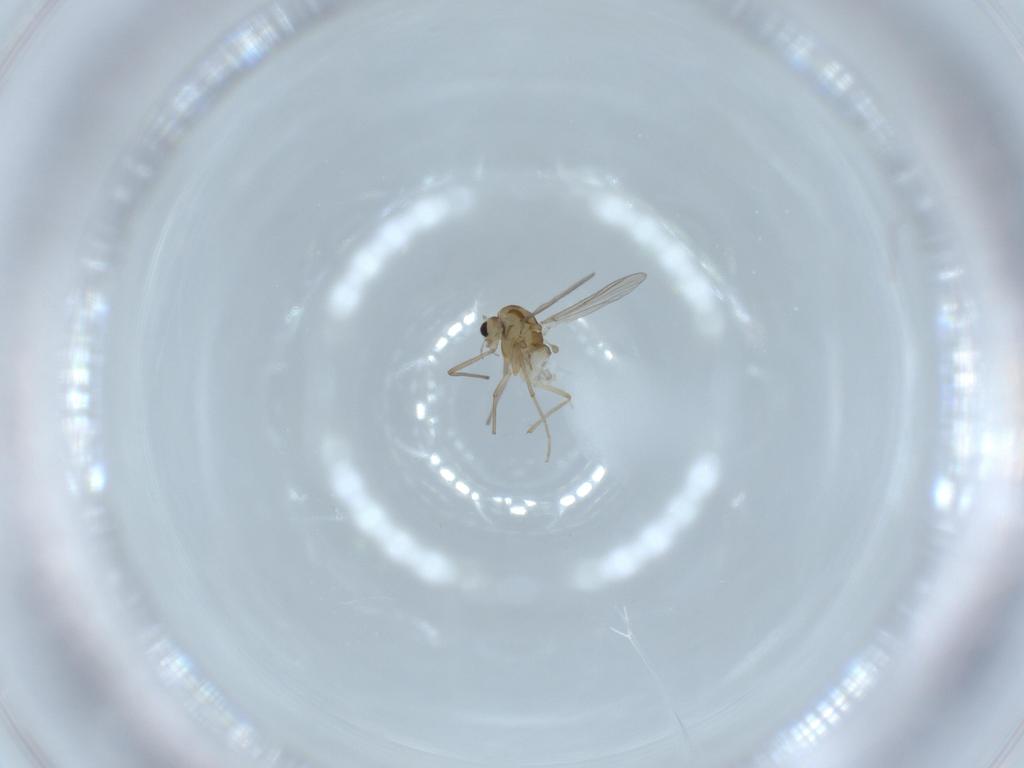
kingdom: Animalia
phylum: Arthropoda
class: Insecta
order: Diptera
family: Chironomidae
